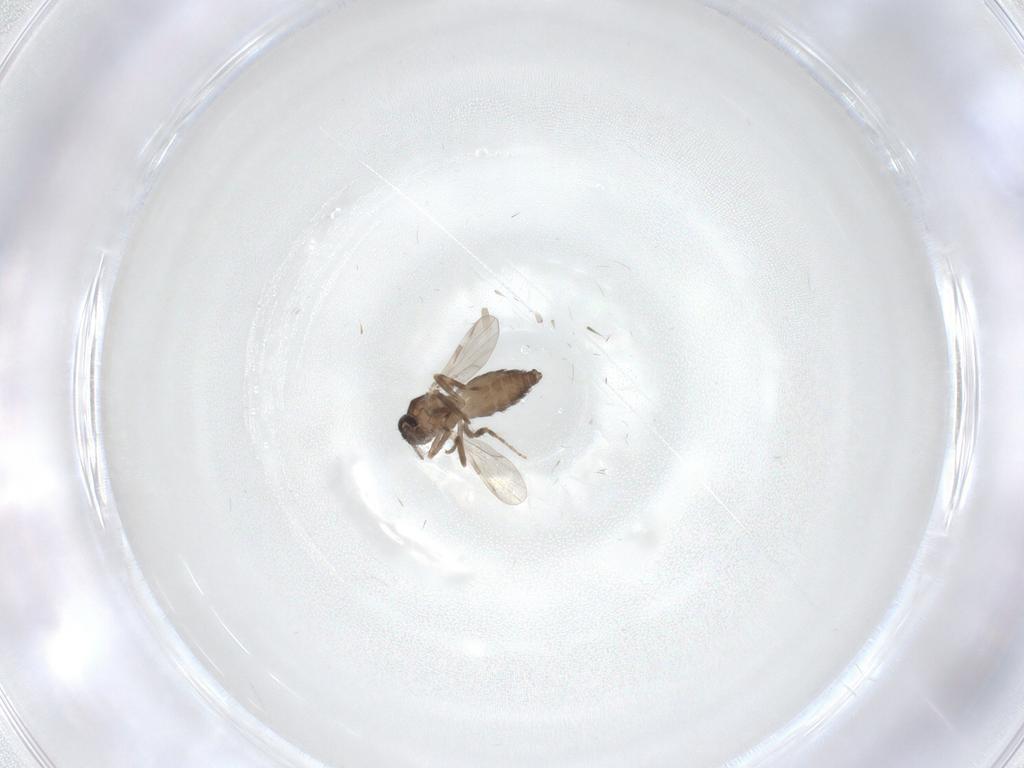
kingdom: Animalia
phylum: Arthropoda
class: Insecta
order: Diptera
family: Ceratopogonidae
